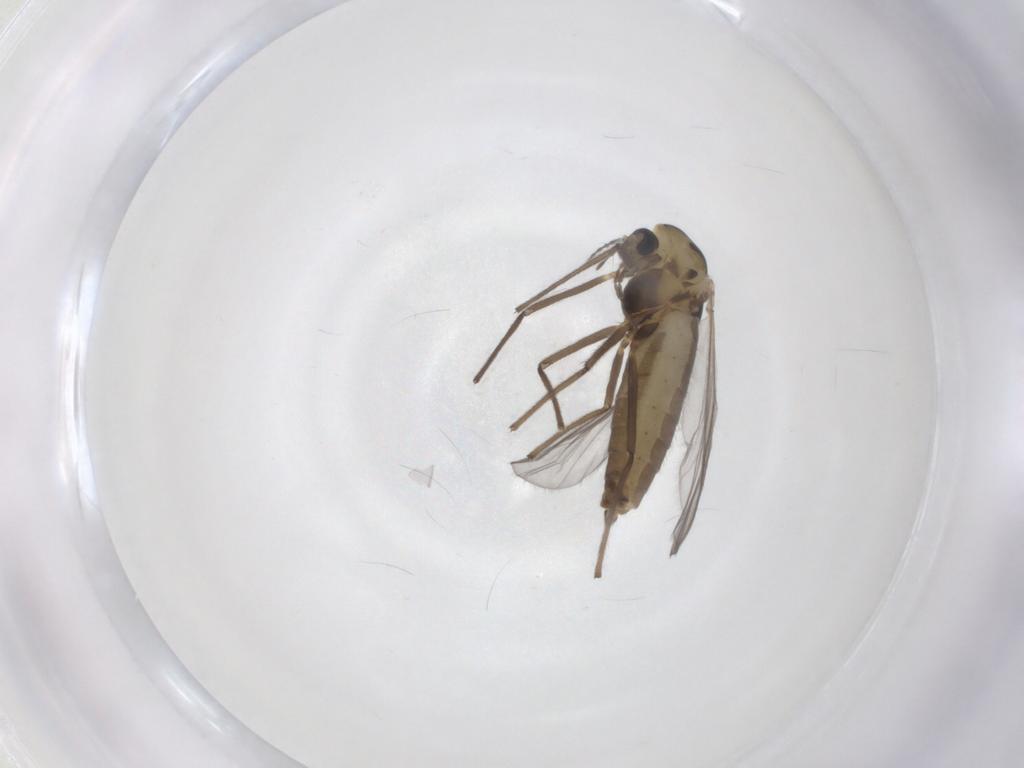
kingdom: Animalia
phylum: Arthropoda
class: Insecta
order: Diptera
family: Chironomidae
